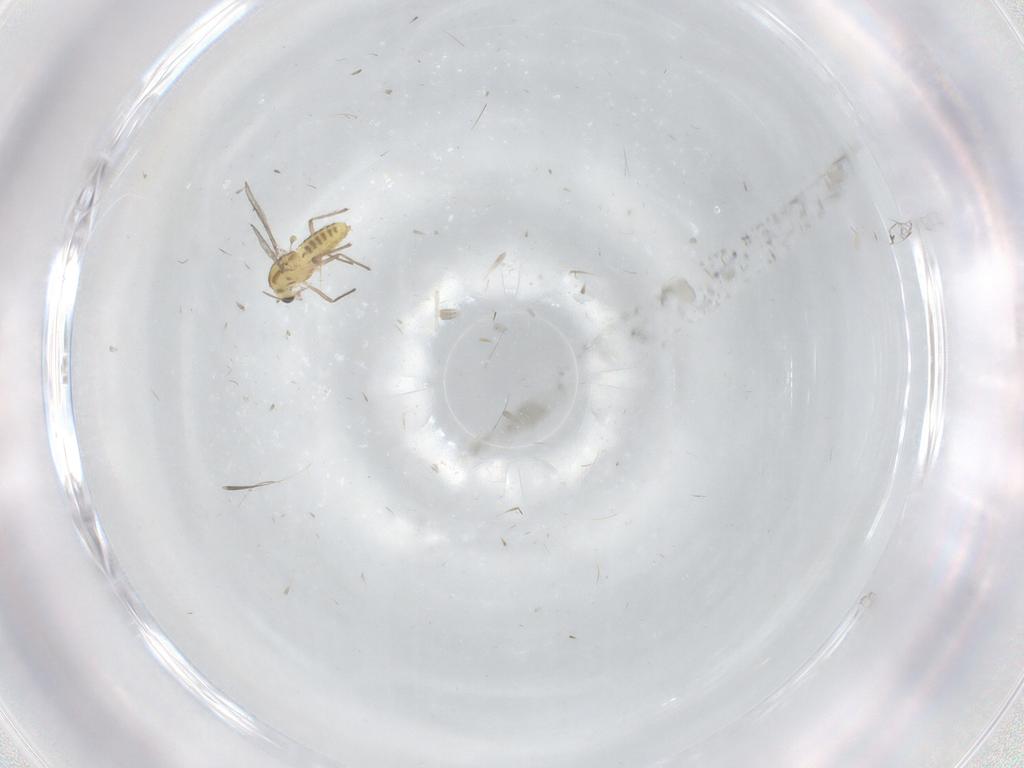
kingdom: Animalia
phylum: Arthropoda
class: Insecta
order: Diptera
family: Chironomidae
